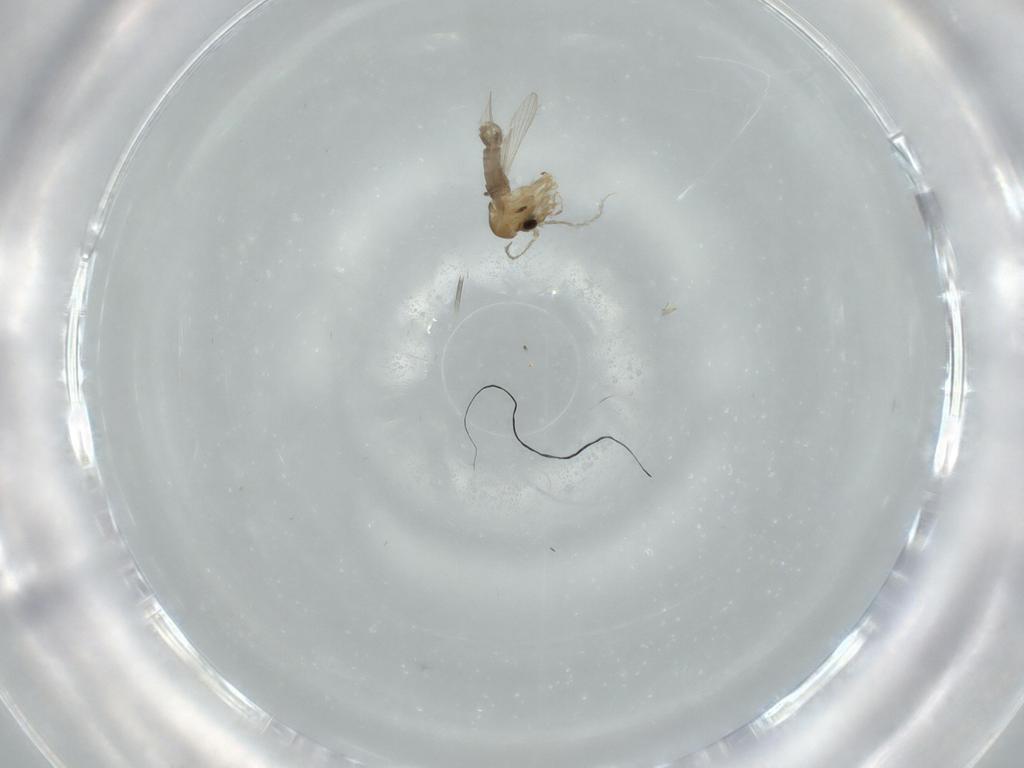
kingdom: Animalia
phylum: Arthropoda
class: Insecta
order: Diptera
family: Psychodidae
